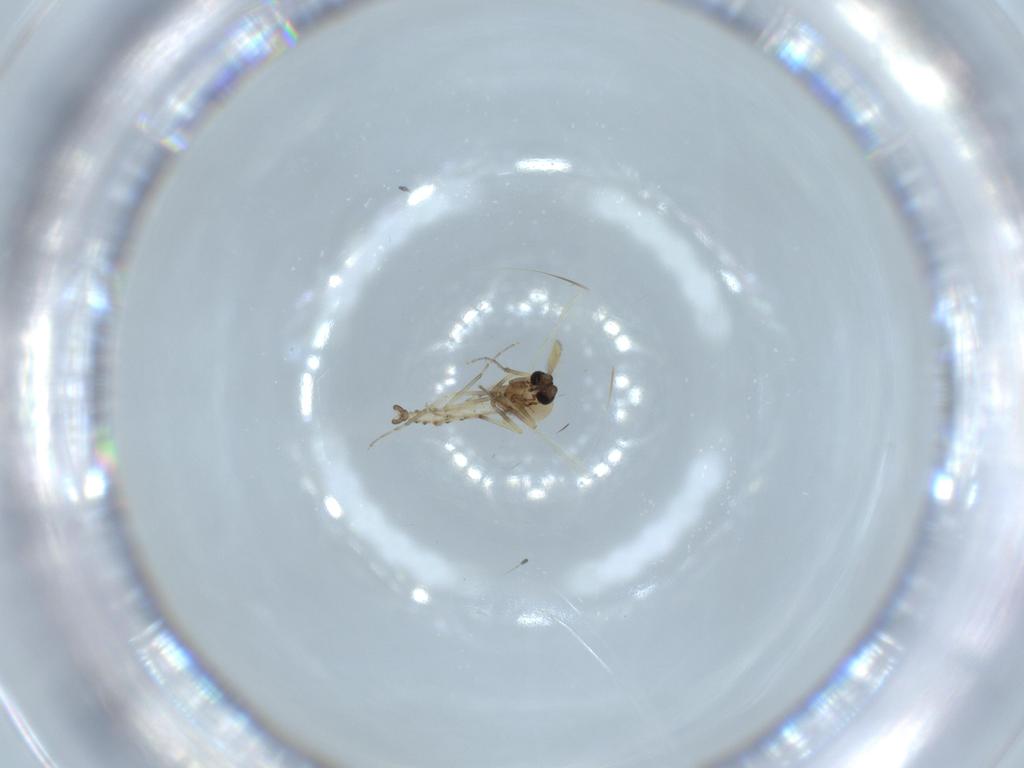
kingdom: Animalia
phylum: Arthropoda
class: Insecta
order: Diptera
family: Ceratopogonidae
